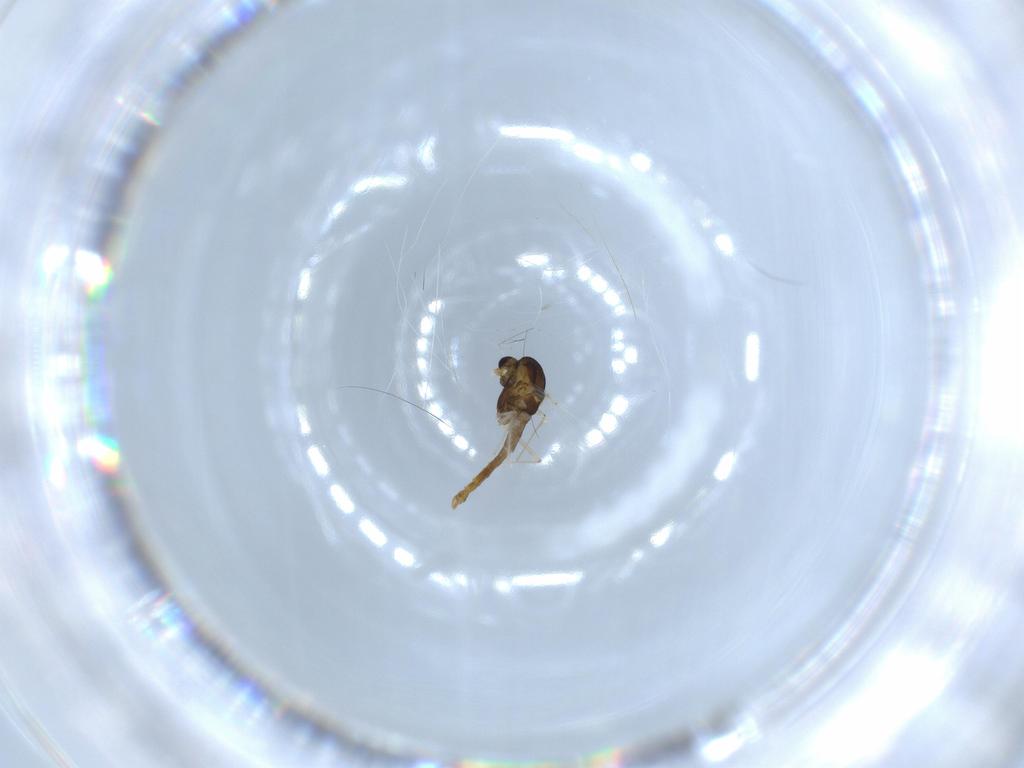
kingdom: Animalia
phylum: Arthropoda
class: Insecta
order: Diptera
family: Chironomidae
